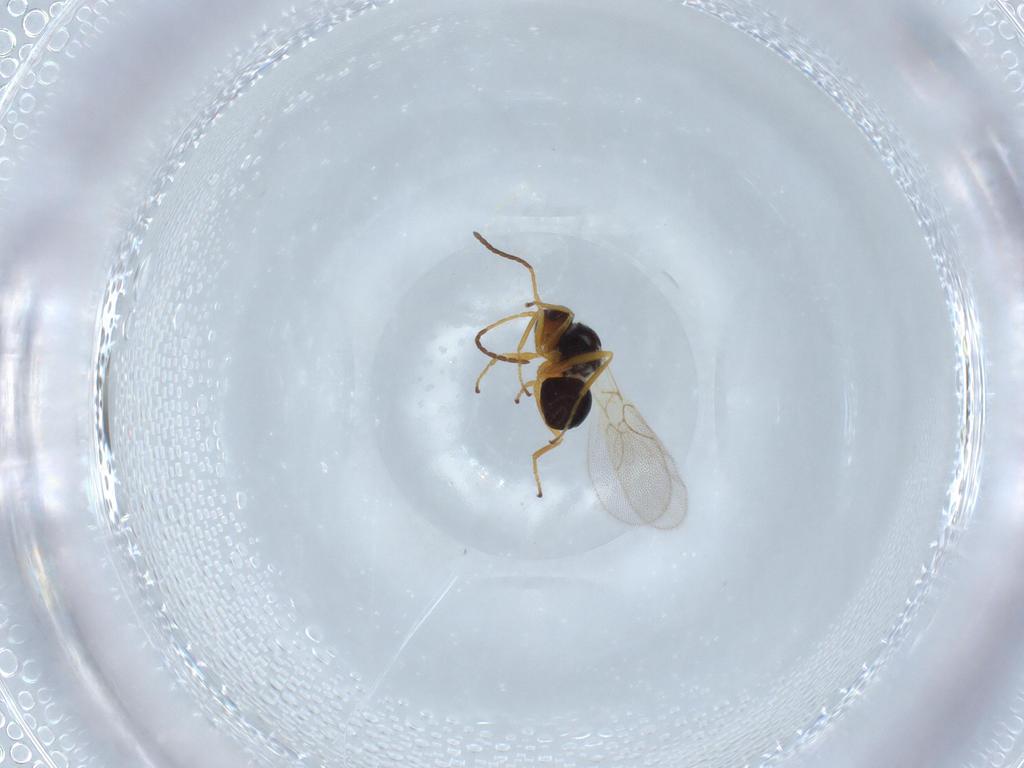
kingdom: Animalia
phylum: Arthropoda
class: Insecta
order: Hymenoptera
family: Figitidae
